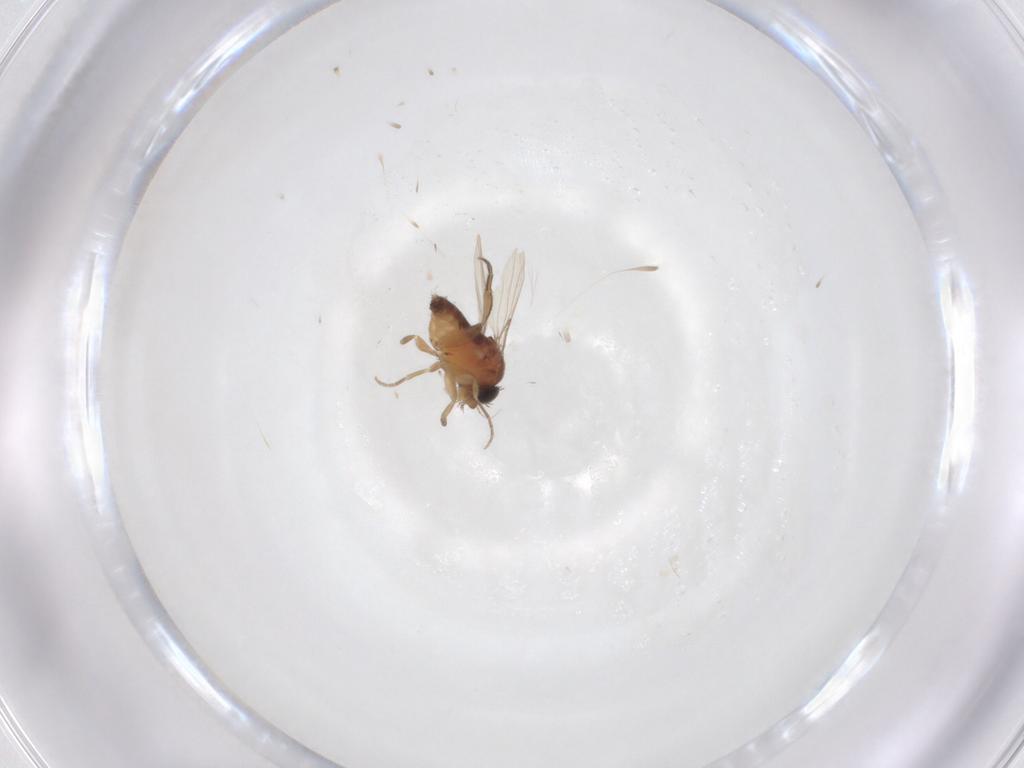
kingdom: Animalia
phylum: Arthropoda
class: Insecta
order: Diptera
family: Phoridae
